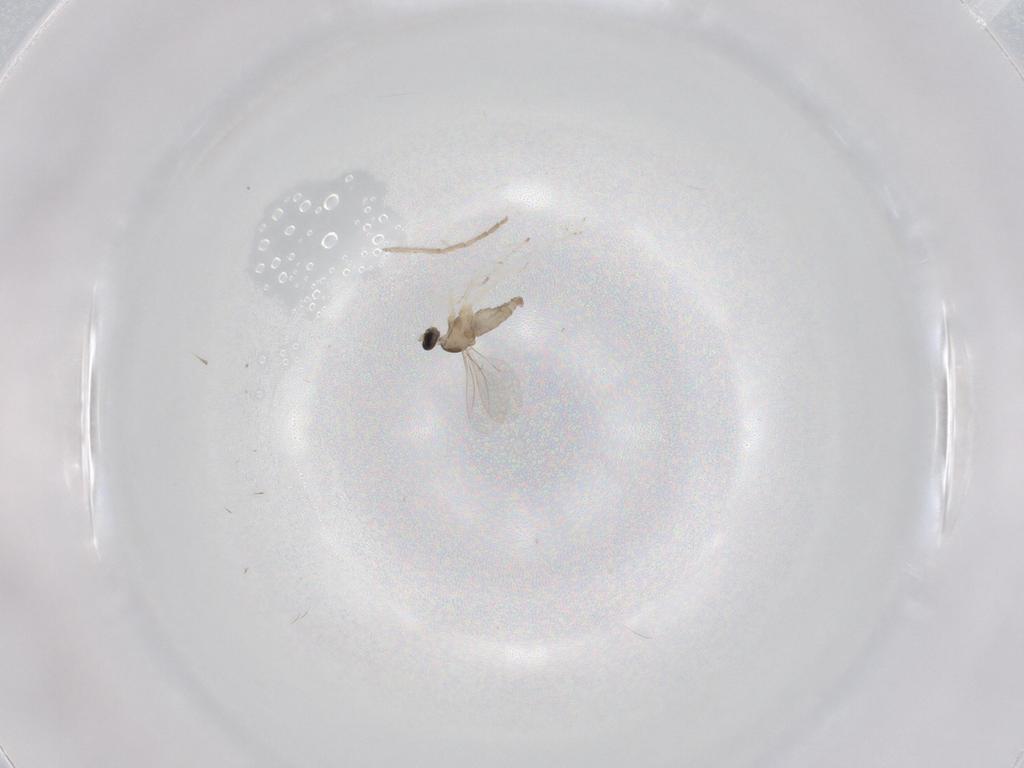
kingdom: Animalia
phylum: Arthropoda
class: Insecta
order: Diptera
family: Cecidomyiidae
